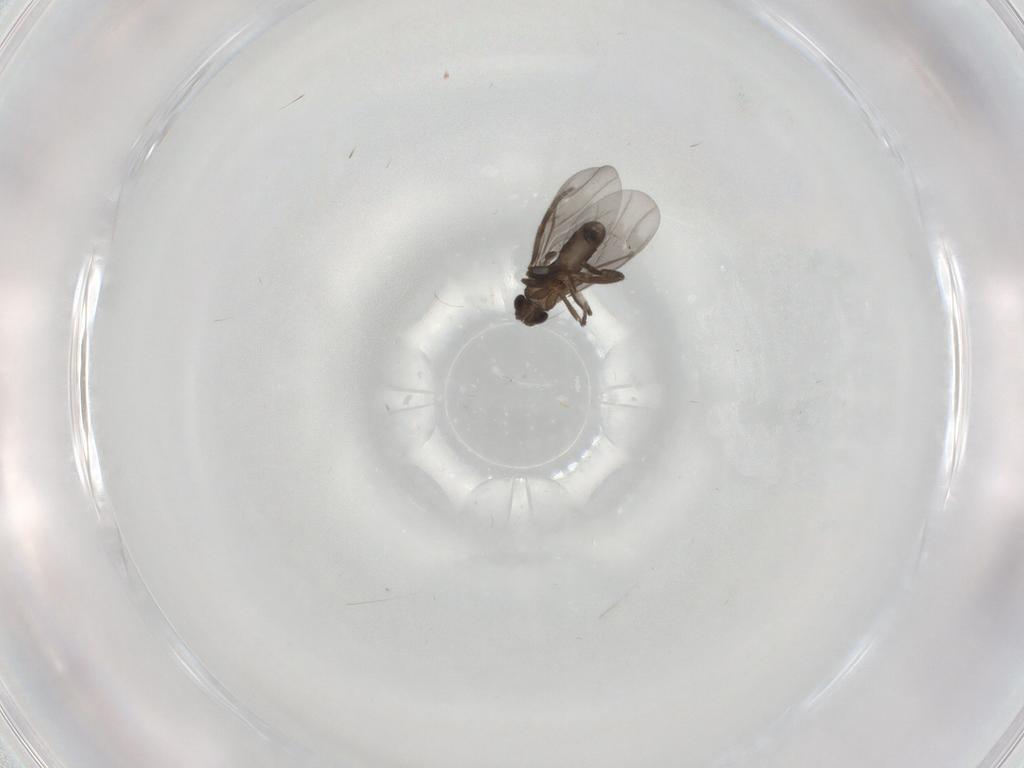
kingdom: Animalia
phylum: Arthropoda
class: Insecta
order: Diptera
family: Phoridae
